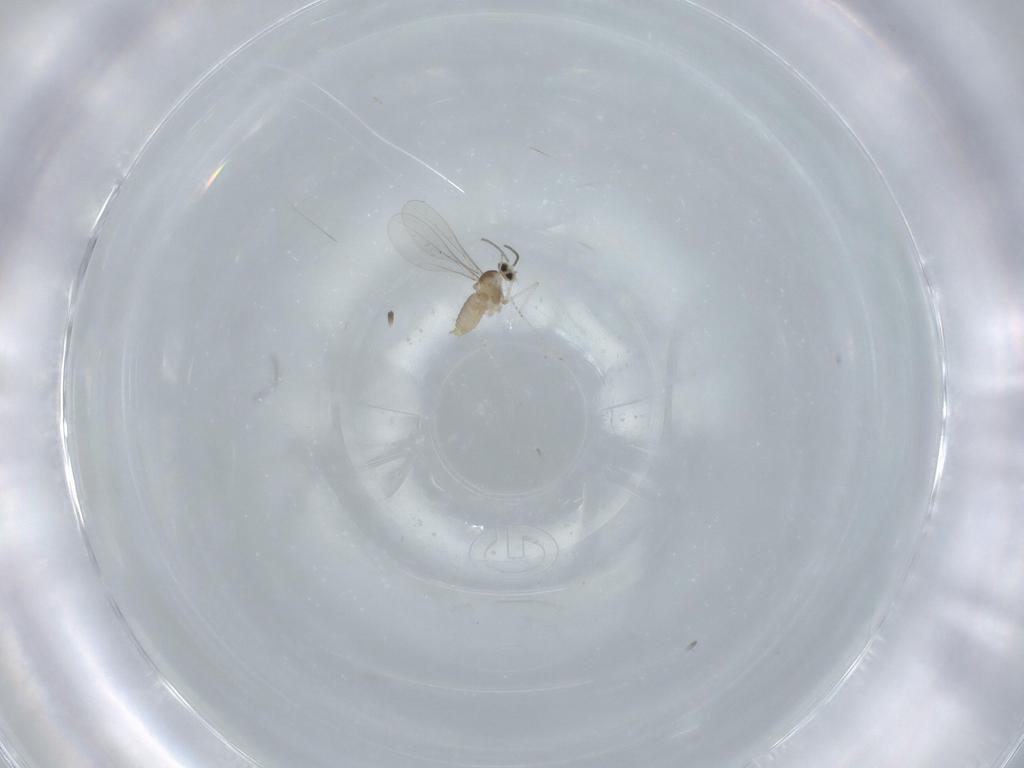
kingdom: Animalia
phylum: Arthropoda
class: Insecta
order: Diptera
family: Cecidomyiidae
